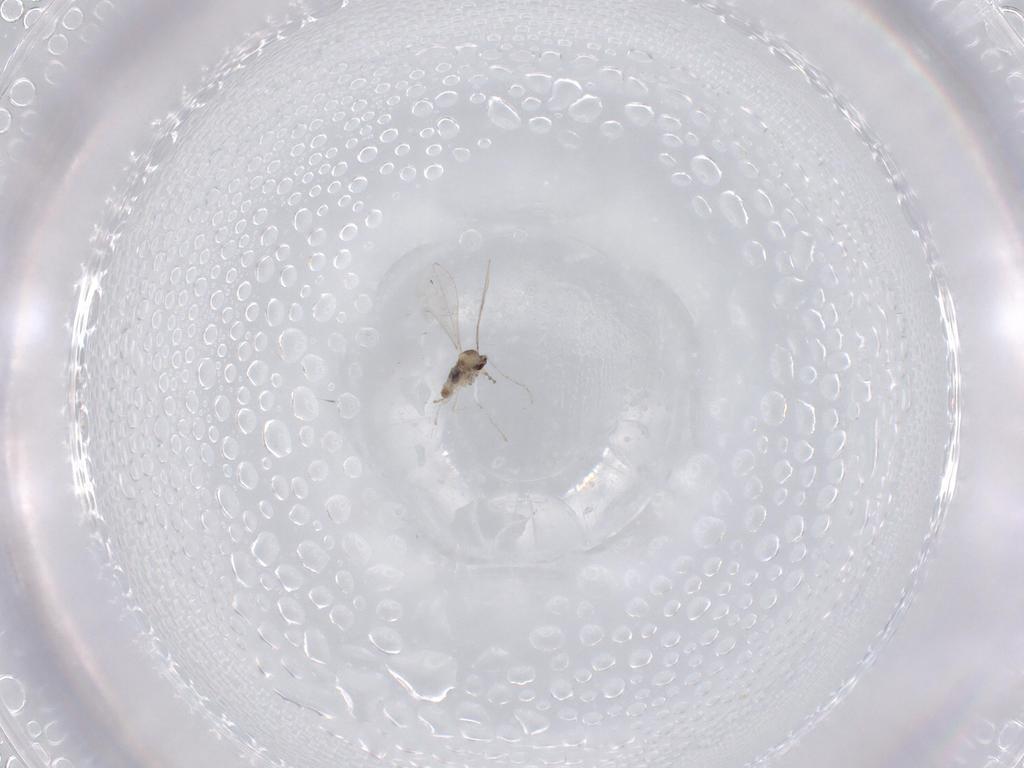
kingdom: Animalia
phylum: Arthropoda
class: Insecta
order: Diptera
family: Cecidomyiidae
